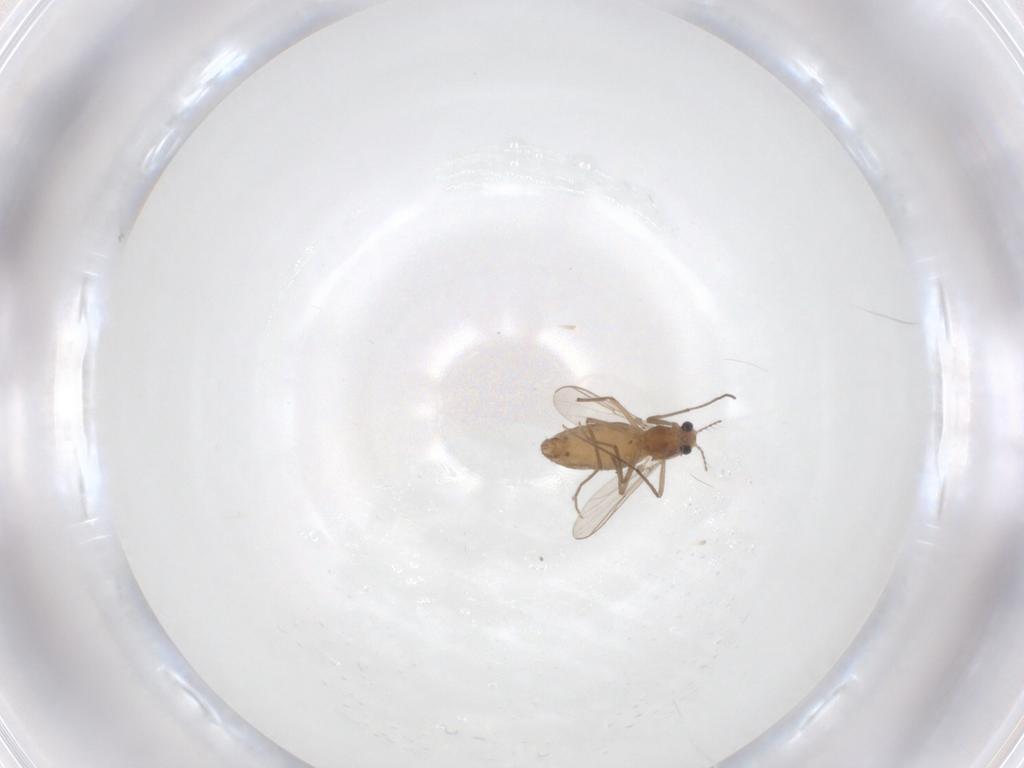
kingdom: Animalia
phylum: Arthropoda
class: Insecta
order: Diptera
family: Chironomidae
